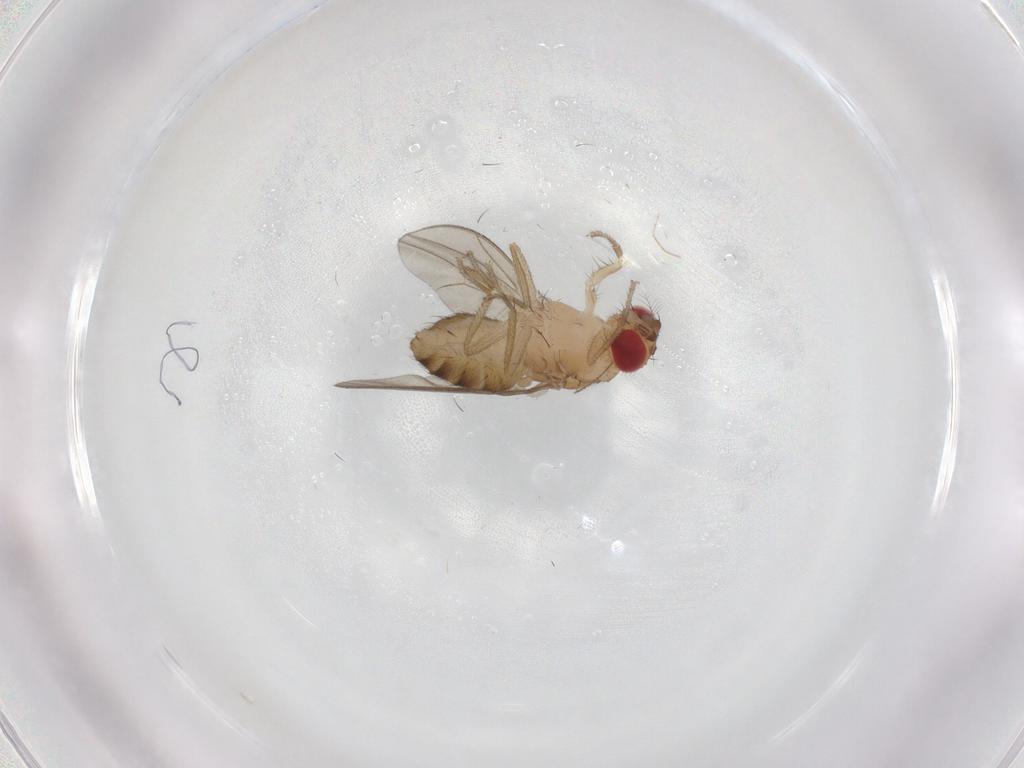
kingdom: Animalia
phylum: Arthropoda
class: Insecta
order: Diptera
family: Drosophilidae
